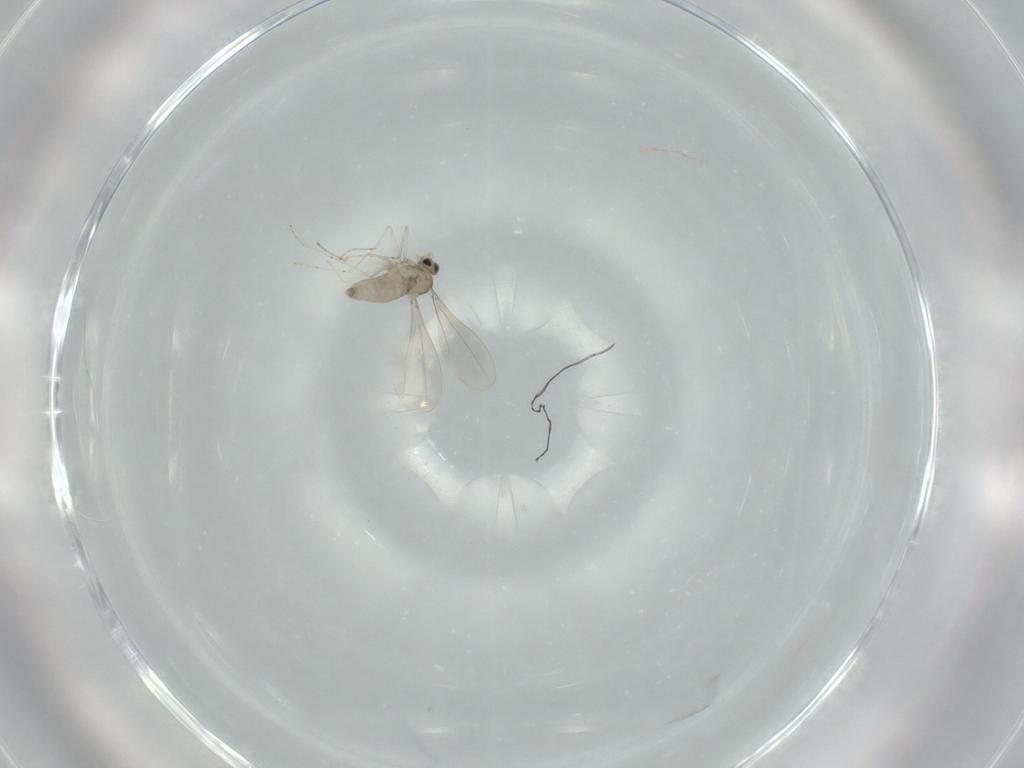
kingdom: Animalia
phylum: Arthropoda
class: Insecta
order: Diptera
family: Cecidomyiidae
